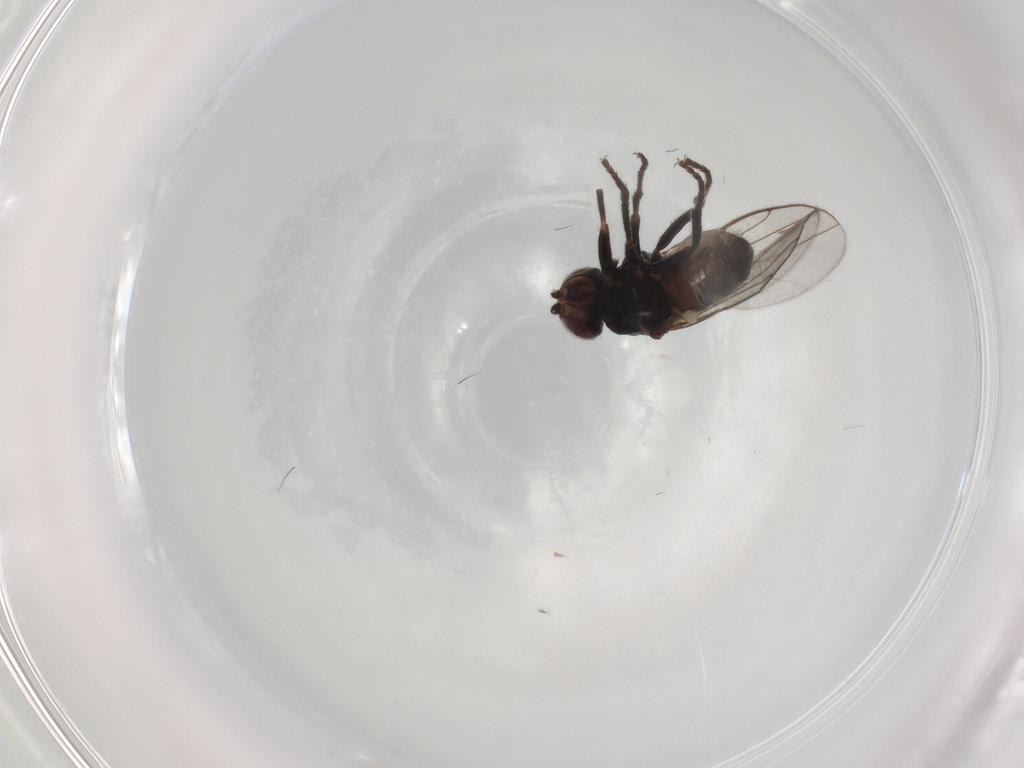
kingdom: Animalia
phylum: Arthropoda
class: Insecta
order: Diptera
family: Chloropidae
